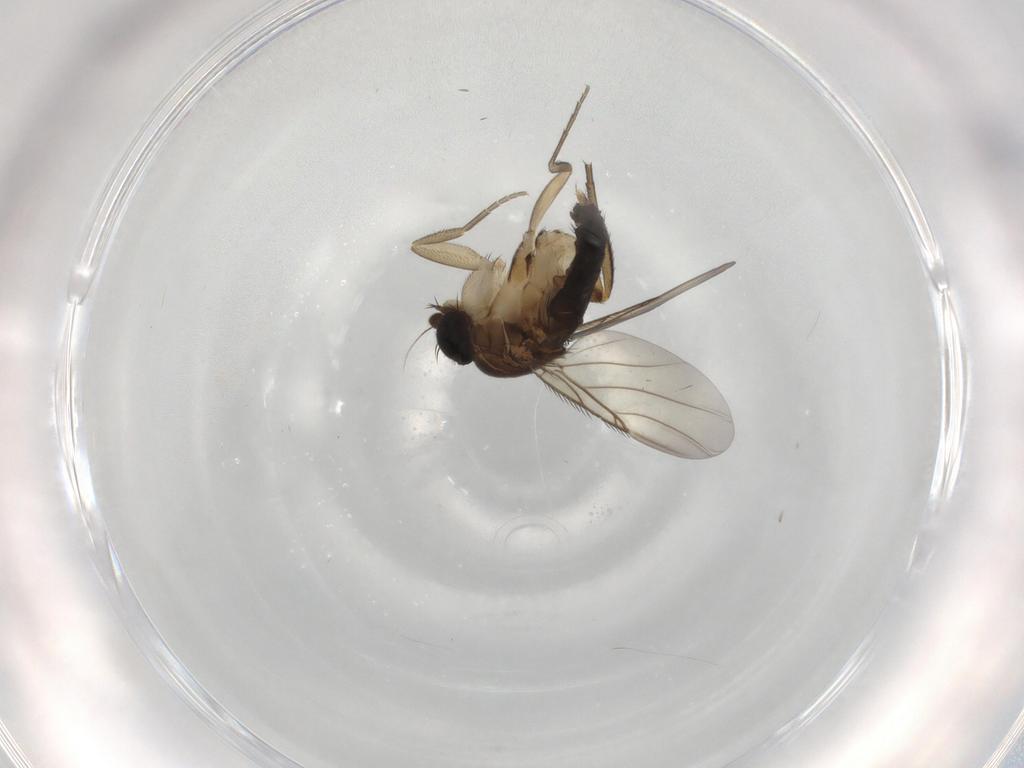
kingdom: Animalia
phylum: Arthropoda
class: Insecta
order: Diptera
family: Phoridae
